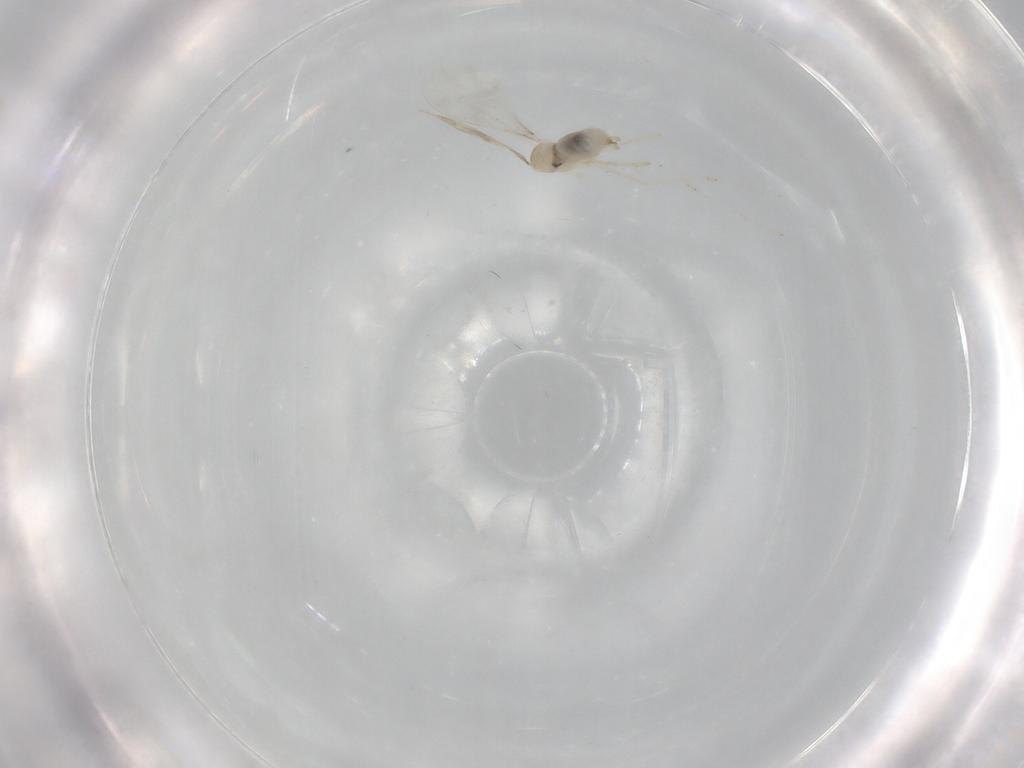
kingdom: Animalia
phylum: Arthropoda
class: Insecta
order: Diptera
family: Cecidomyiidae
